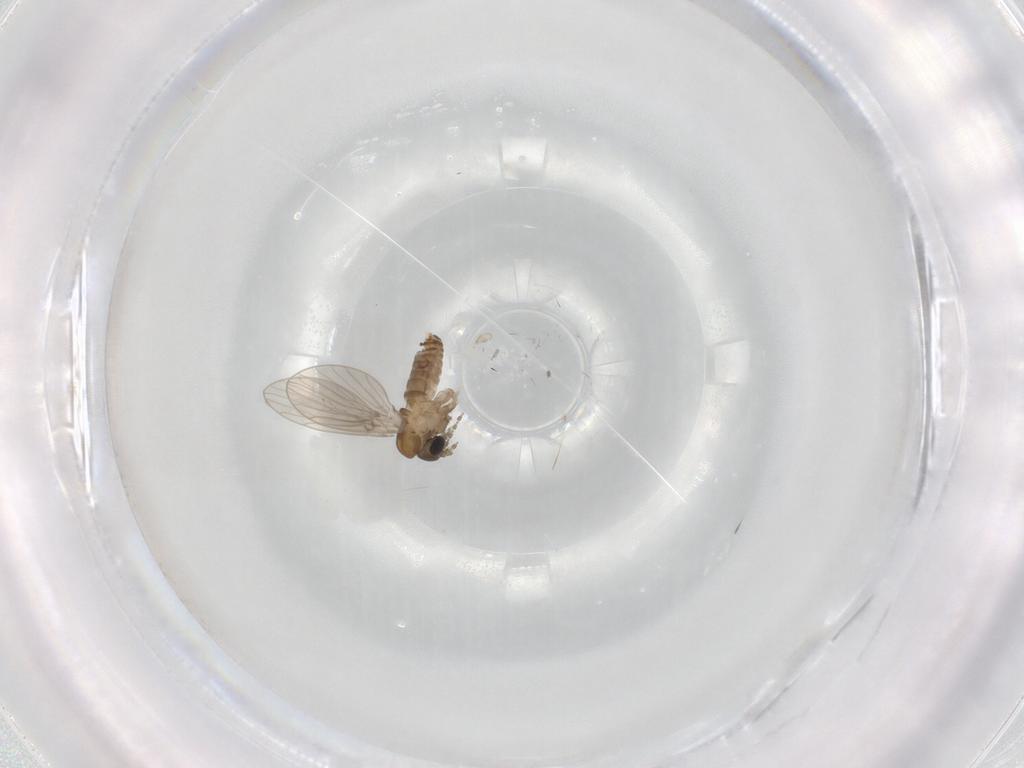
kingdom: Animalia
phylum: Arthropoda
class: Insecta
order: Diptera
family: Psychodidae
